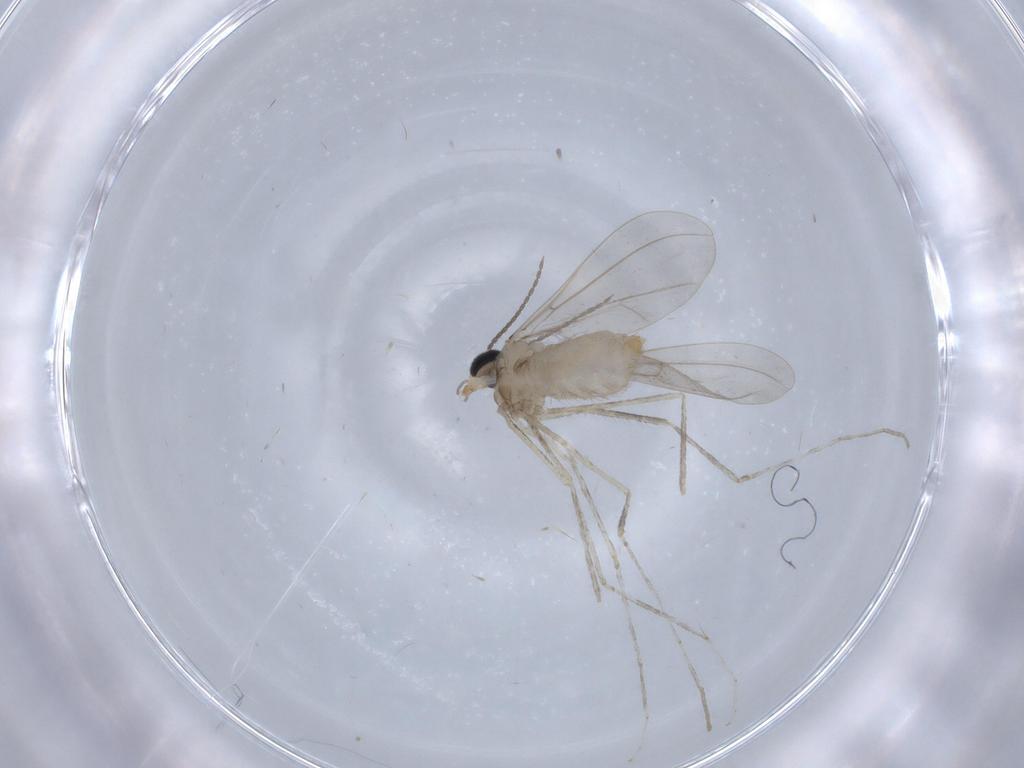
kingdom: Animalia
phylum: Arthropoda
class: Insecta
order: Diptera
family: Cecidomyiidae
